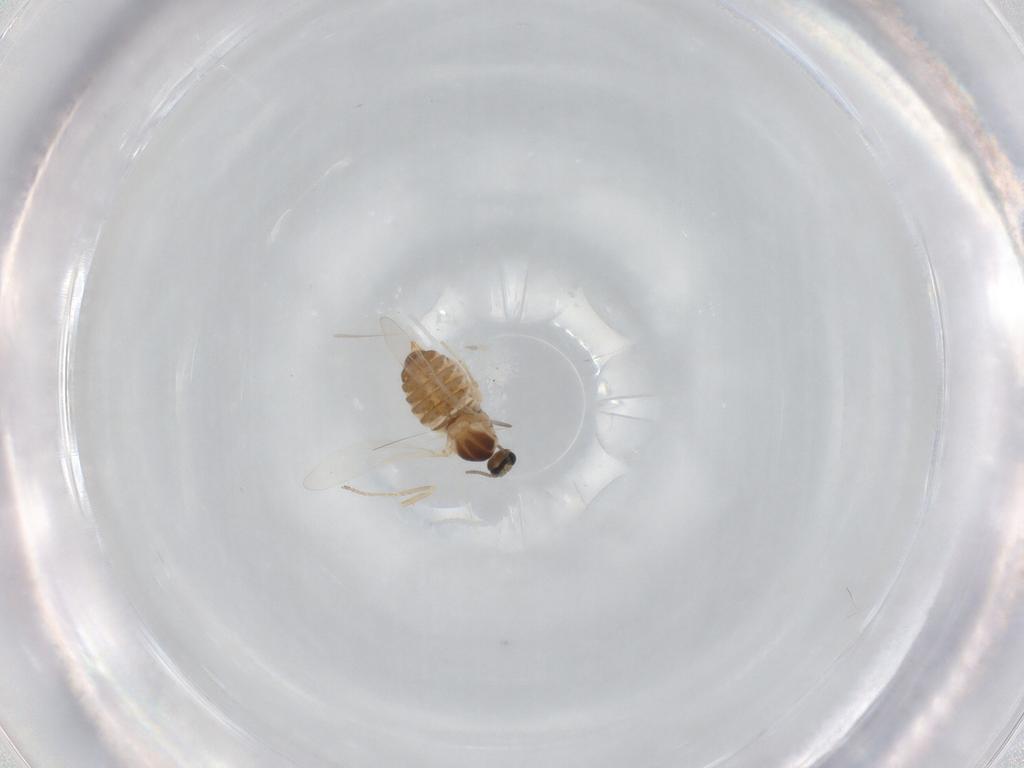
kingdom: Animalia
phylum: Arthropoda
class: Insecta
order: Diptera
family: Cecidomyiidae
